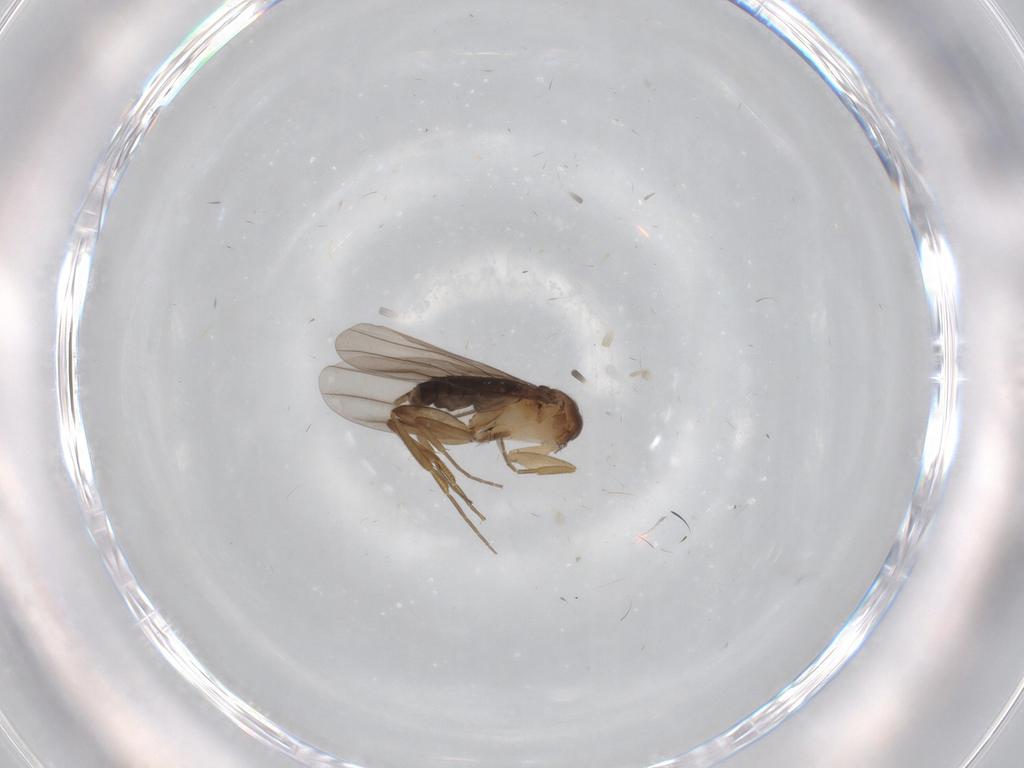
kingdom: Animalia
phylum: Arthropoda
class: Insecta
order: Diptera
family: Phoridae
